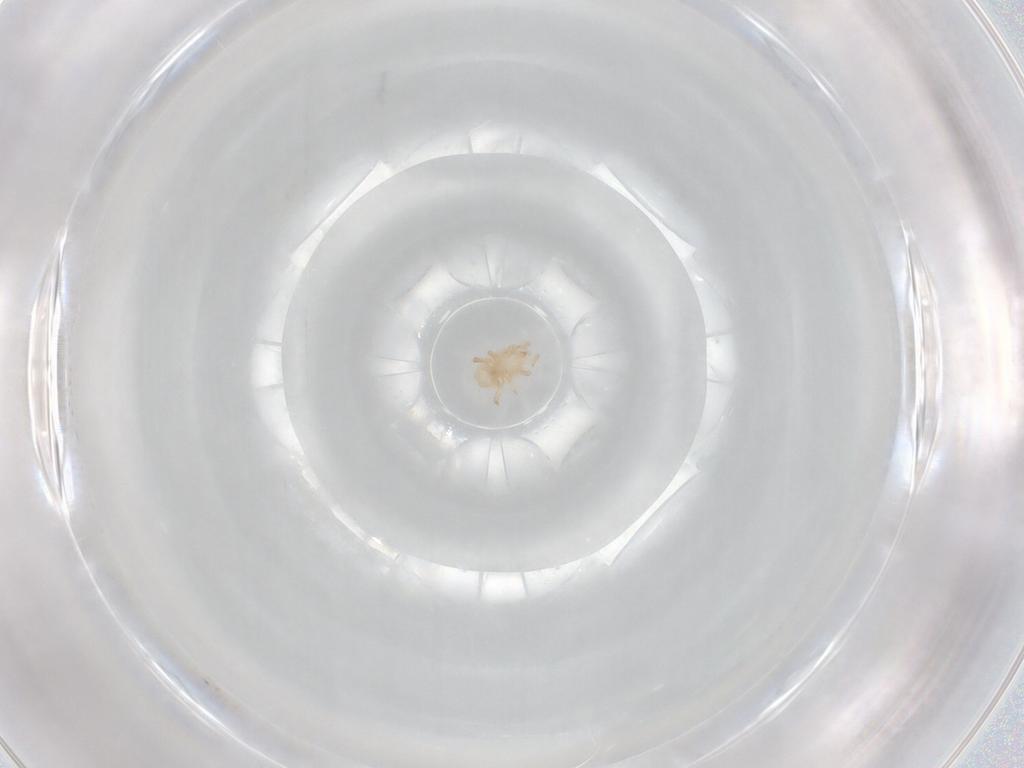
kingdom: Animalia
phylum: Arthropoda
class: Arachnida
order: Mesostigmata
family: Halolaelapidae
